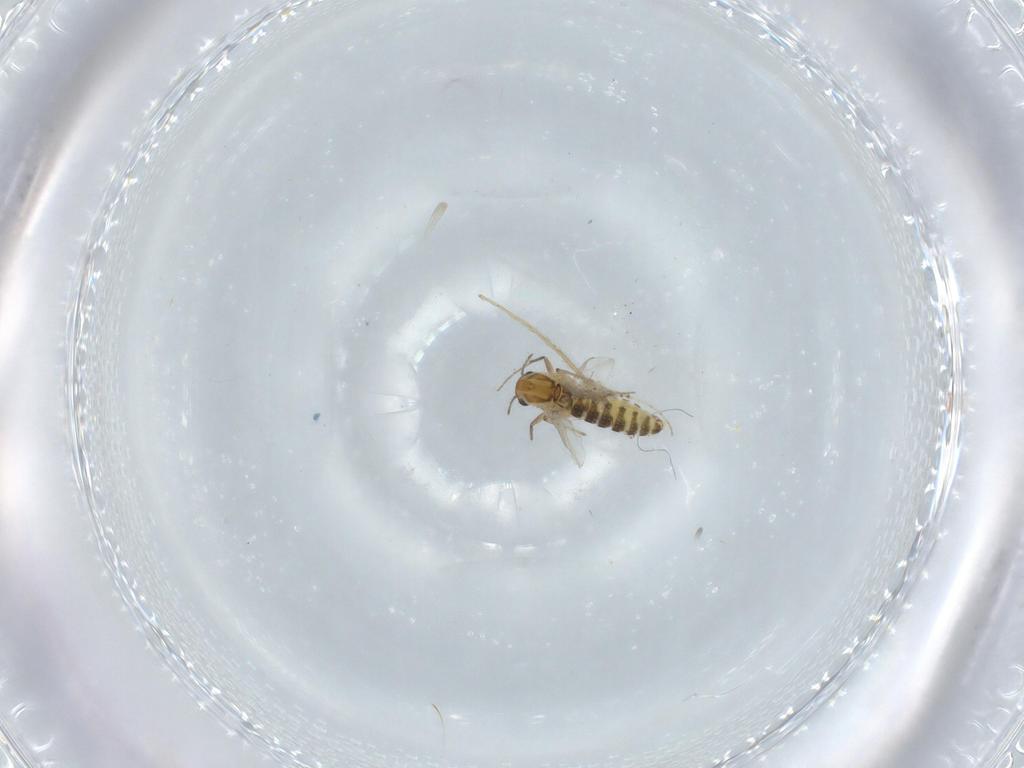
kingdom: Animalia
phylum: Arthropoda
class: Insecta
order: Diptera
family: Chironomidae
